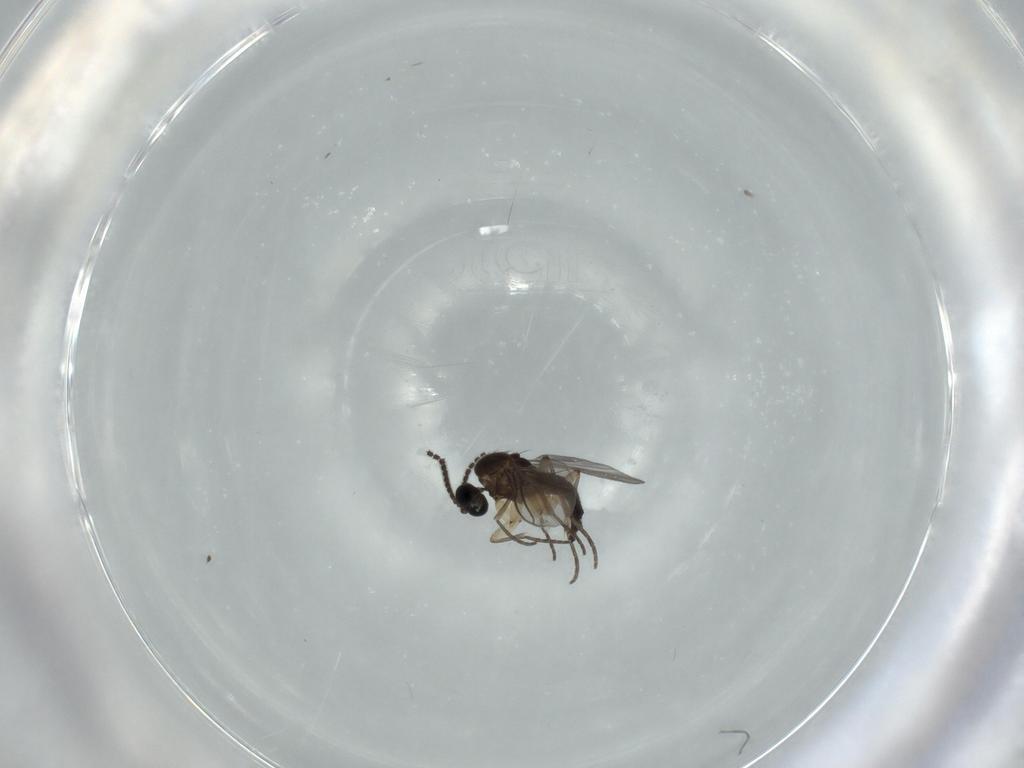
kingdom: Animalia
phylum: Arthropoda
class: Insecta
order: Diptera
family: Sciaridae
